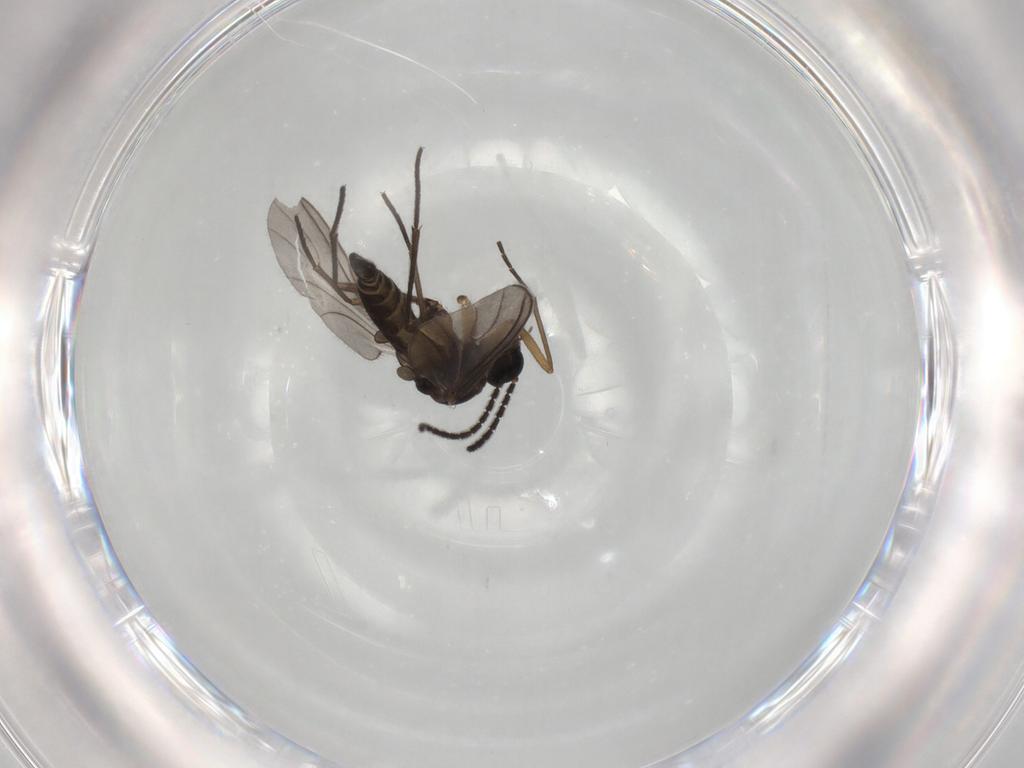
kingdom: Animalia
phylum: Arthropoda
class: Insecta
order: Diptera
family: Sciaridae
